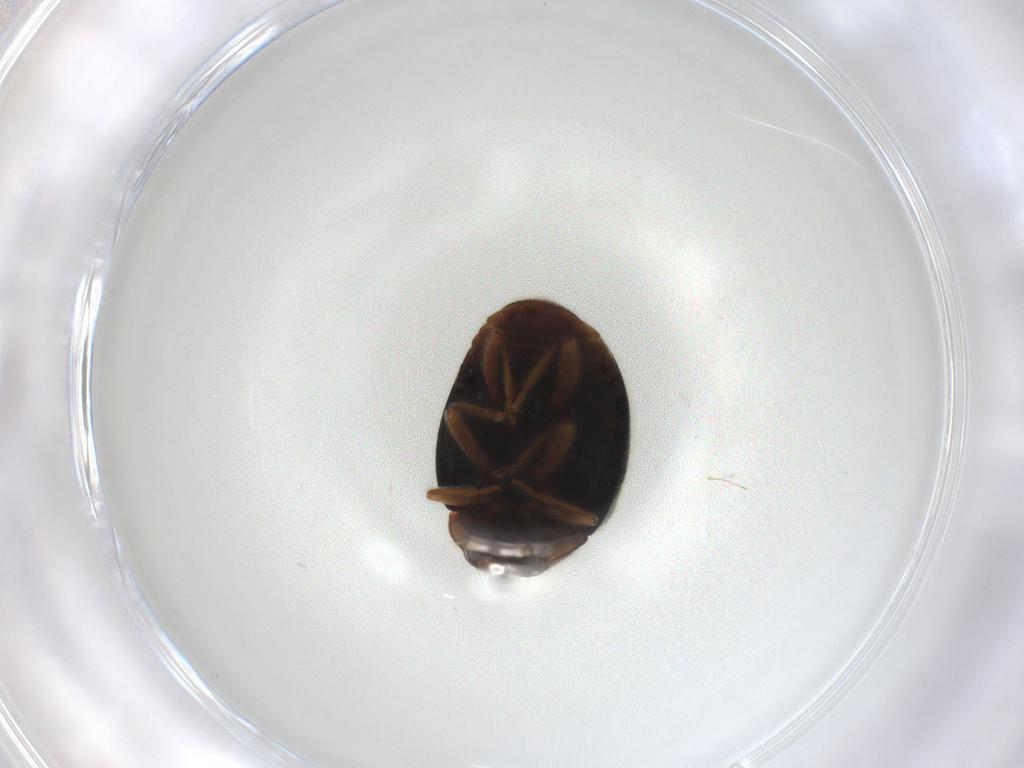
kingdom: Animalia
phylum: Arthropoda
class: Insecta
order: Coleoptera
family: Coccinellidae
